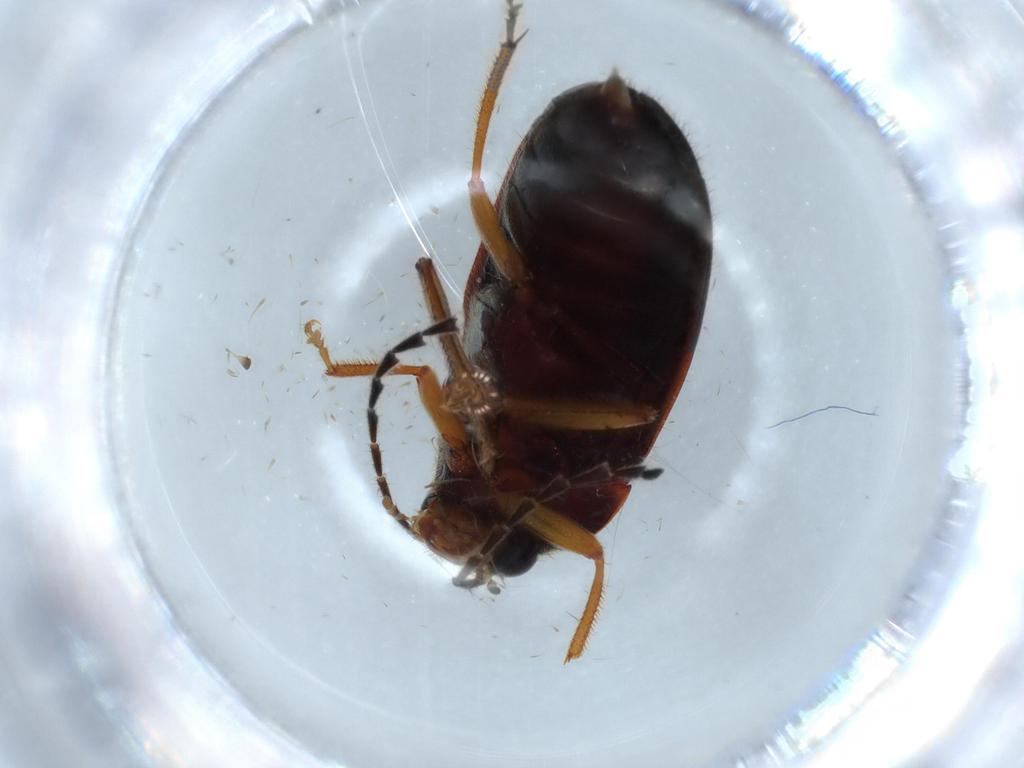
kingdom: Animalia
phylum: Arthropoda
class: Insecta
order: Coleoptera
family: Ptilodactylidae
